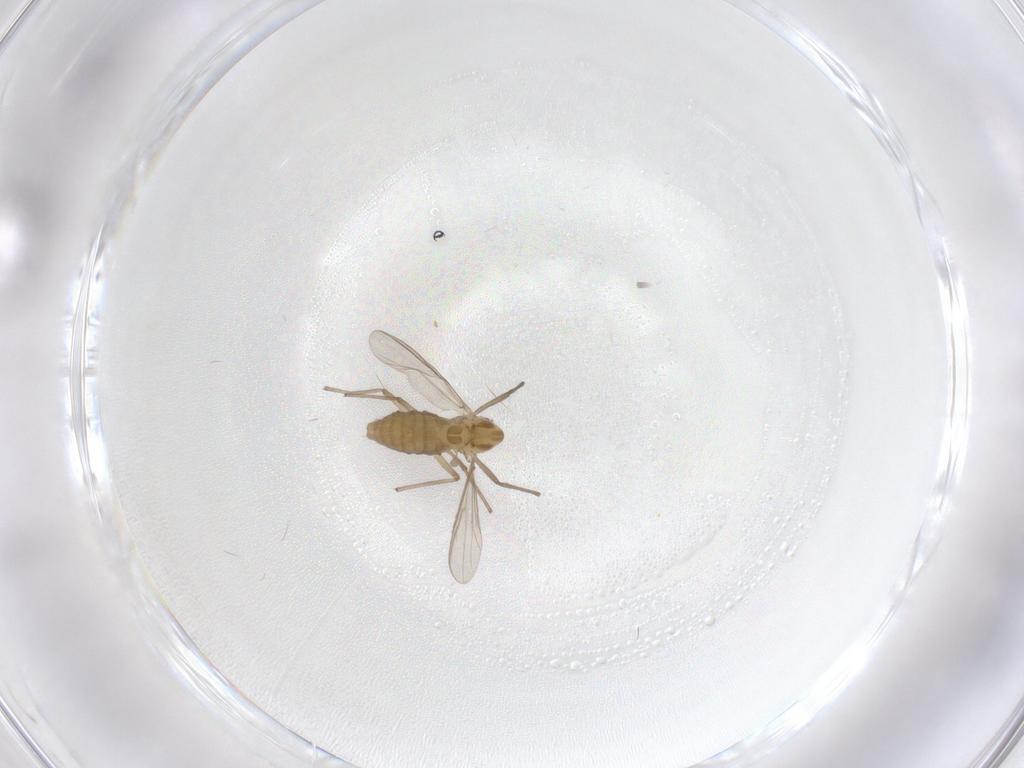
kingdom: Animalia
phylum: Arthropoda
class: Insecta
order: Diptera
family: Chironomidae
